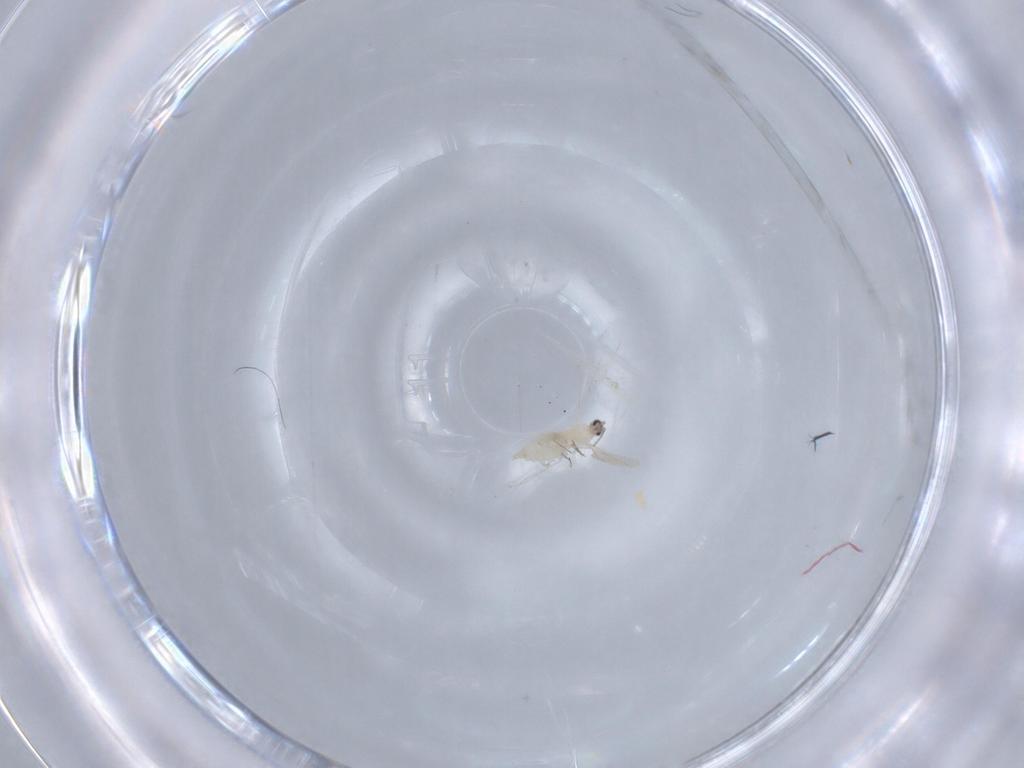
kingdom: Animalia
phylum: Arthropoda
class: Insecta
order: Diptera
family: Cecidomyiidae
